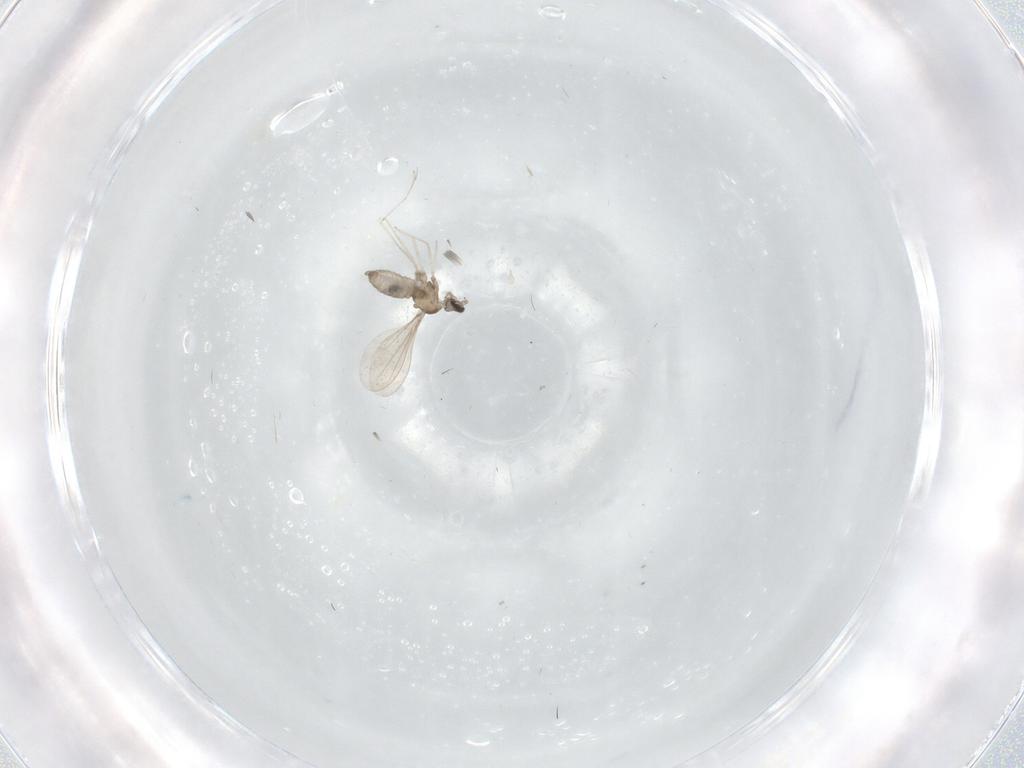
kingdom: Animalia
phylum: Arthropoda
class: Insecta
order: Diptera
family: Cecidomyiidae
